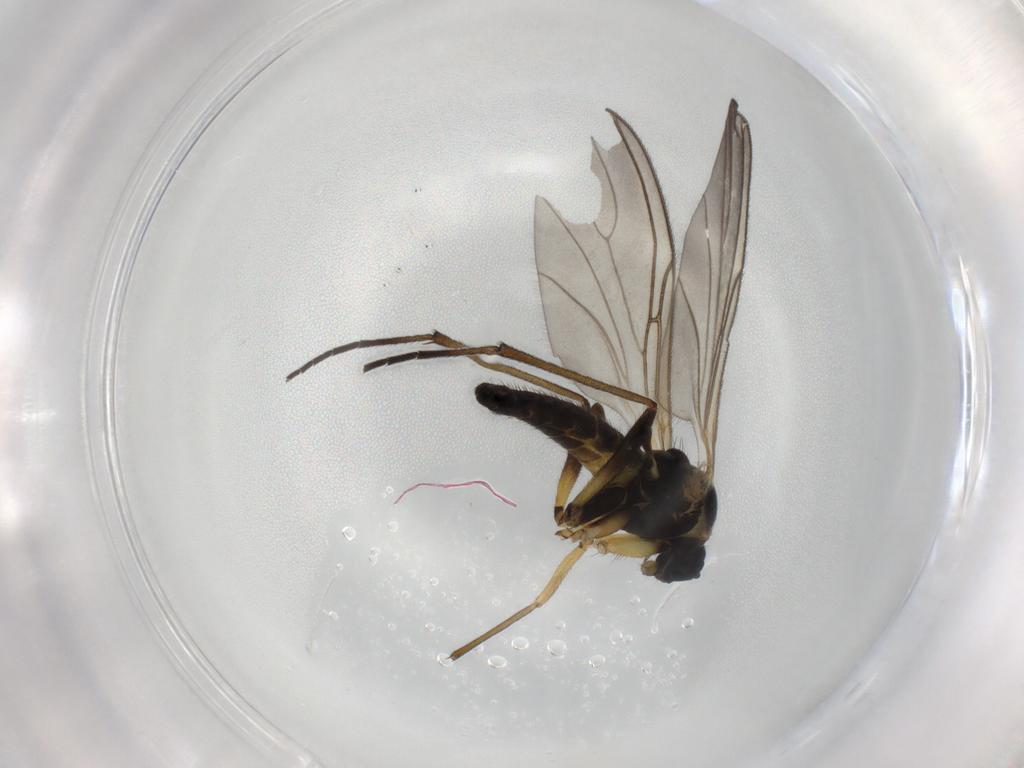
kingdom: Animalia
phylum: Arthropoda
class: Insecta
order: Diptera
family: Sciaridae
